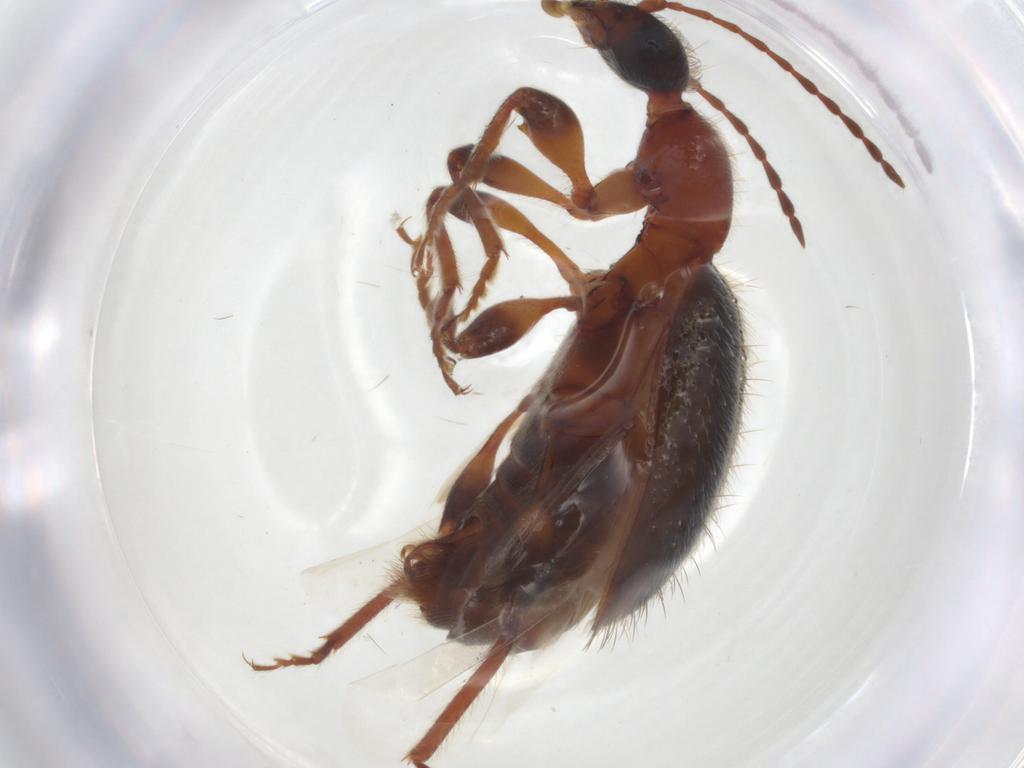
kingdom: Animalia
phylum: Arthropoda
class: Insecta
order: Coleoptera
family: Anthicidae
